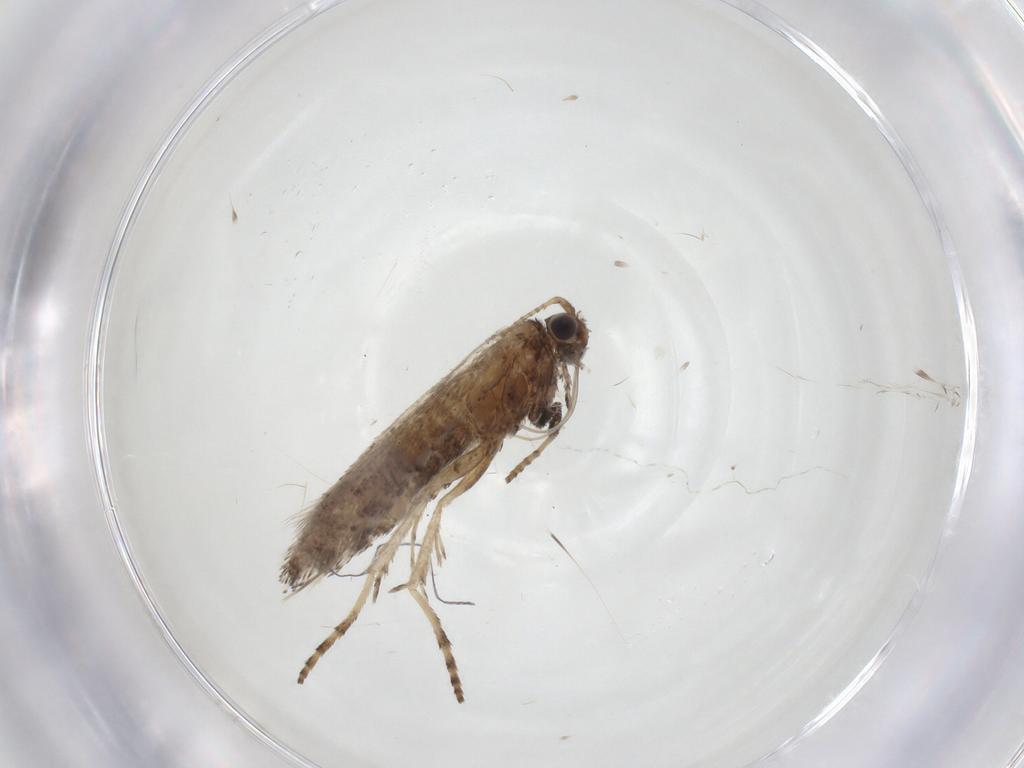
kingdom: Animalia
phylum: Arthropoda
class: Insecta
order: Lepidoptera
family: Gracillariidae
